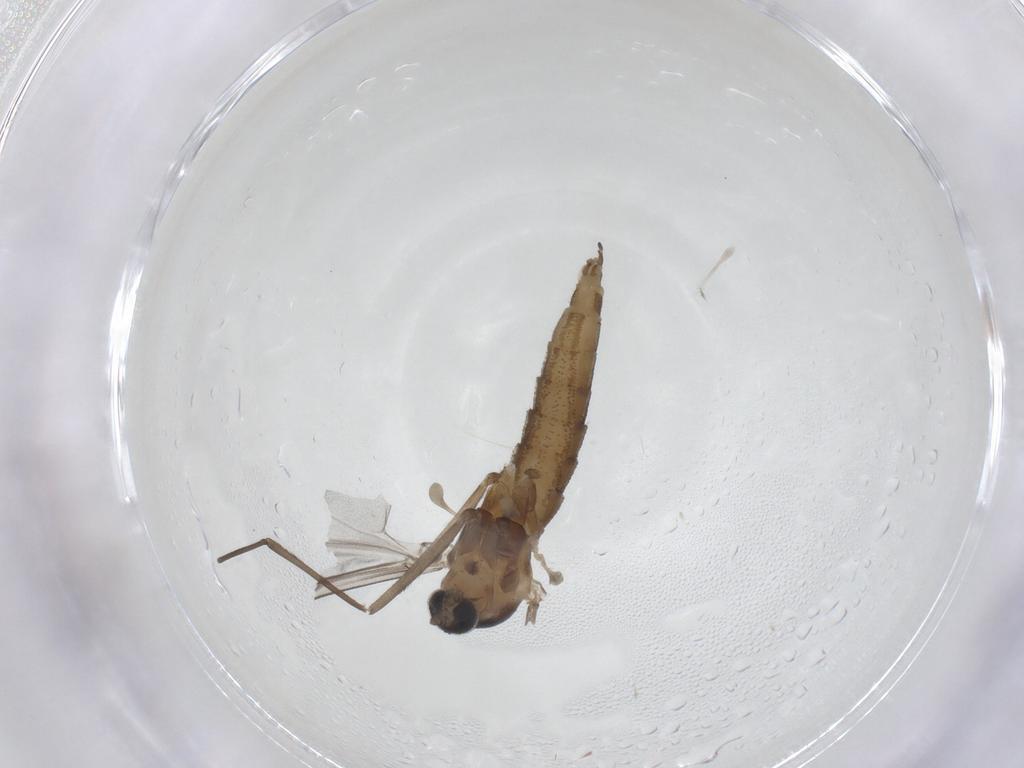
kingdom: Animalia
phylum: Arthropoda
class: Insecta
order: Diptera
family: Cecidomyiidae
